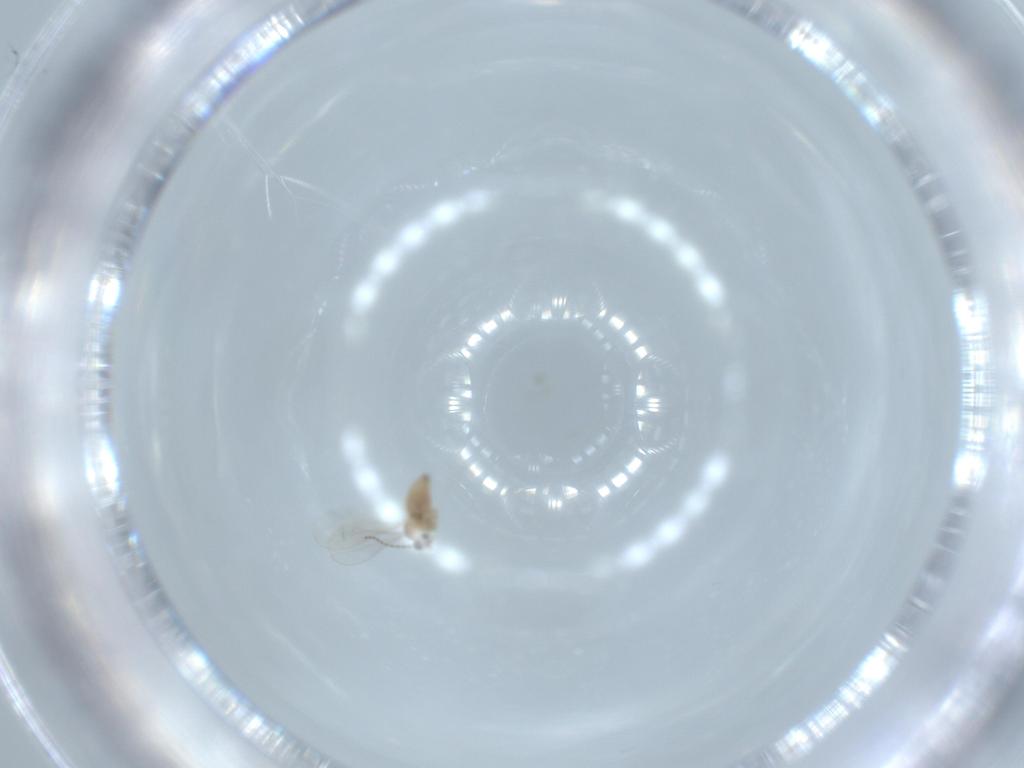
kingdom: Animalia
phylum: Arthropoda
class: Insecta
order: Diptera
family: Cecidomyiidae
